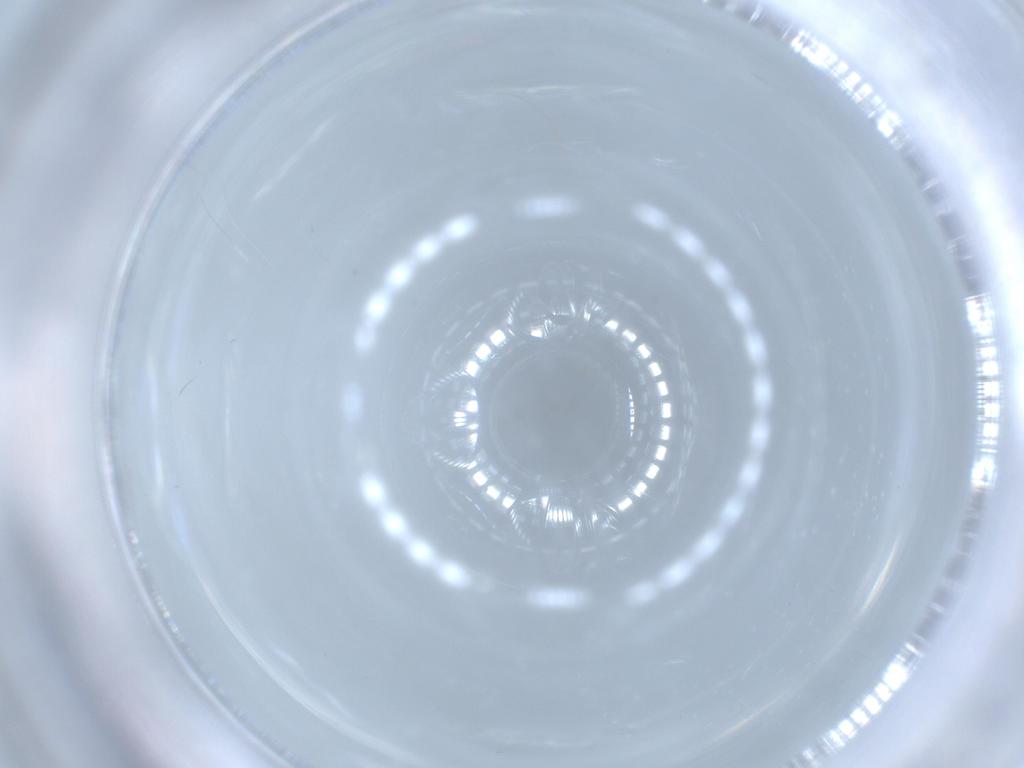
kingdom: Animalia
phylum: Arthropoda
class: Insecta
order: Diptera
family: Chironomidae
